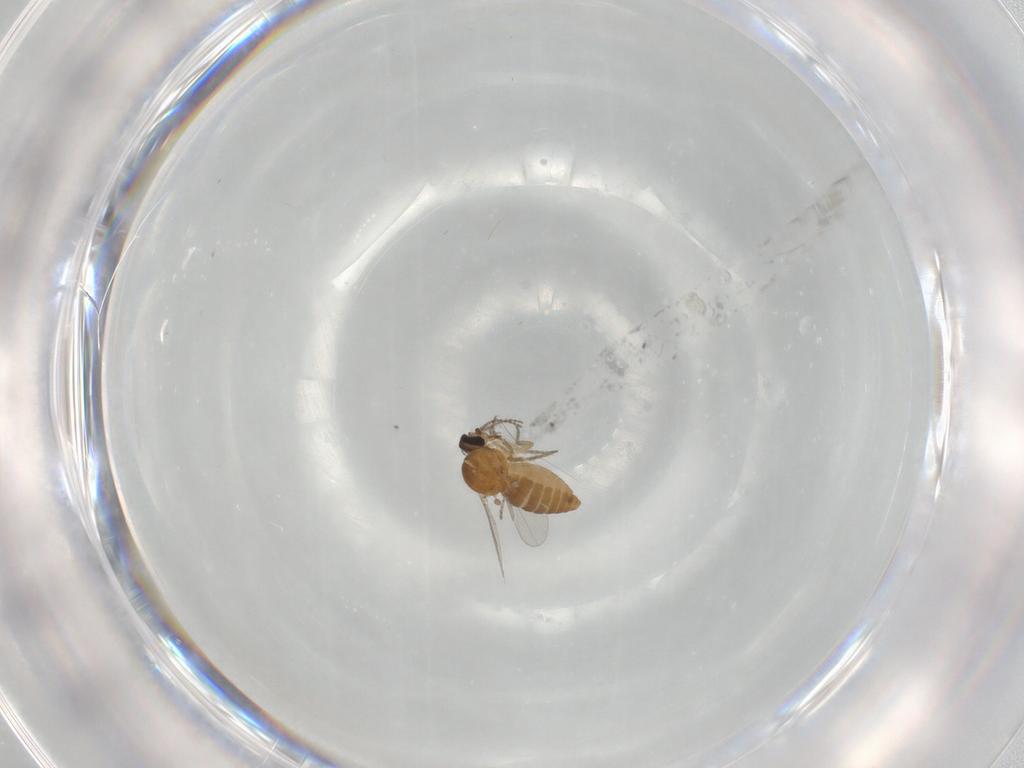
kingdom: Animalia
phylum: Arthropoda
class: Insecta
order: Diptera
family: Ceratopogonidae
